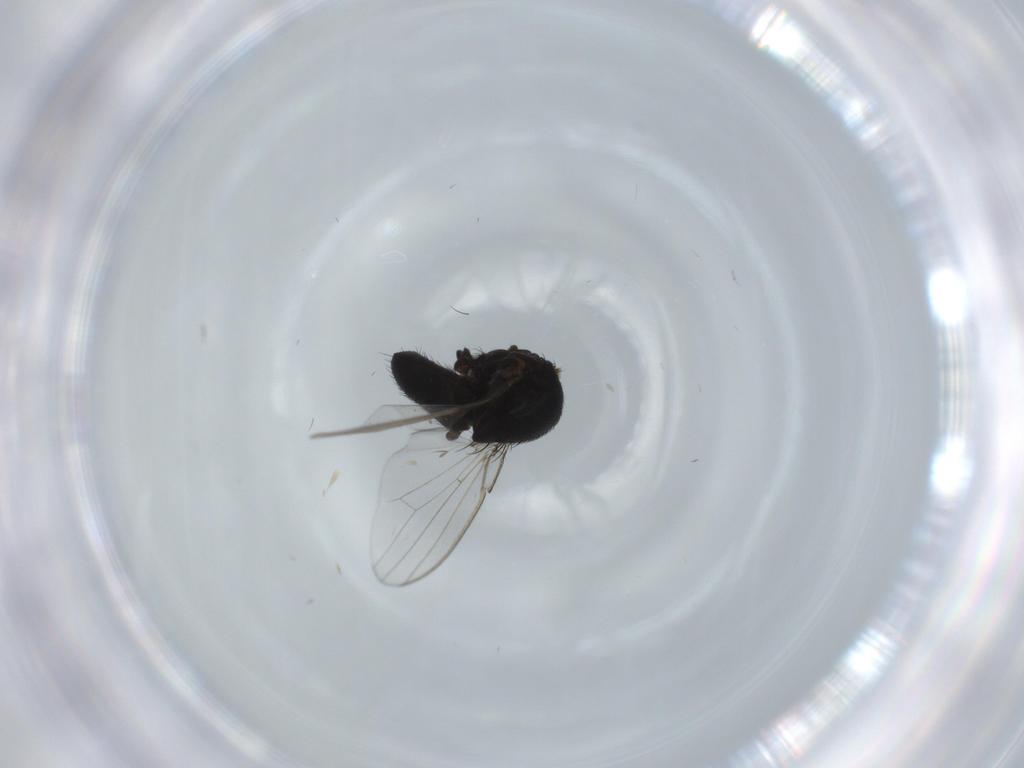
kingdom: Animalia
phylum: Arthropoda
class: Insecta
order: Diptera
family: Milichiidae
